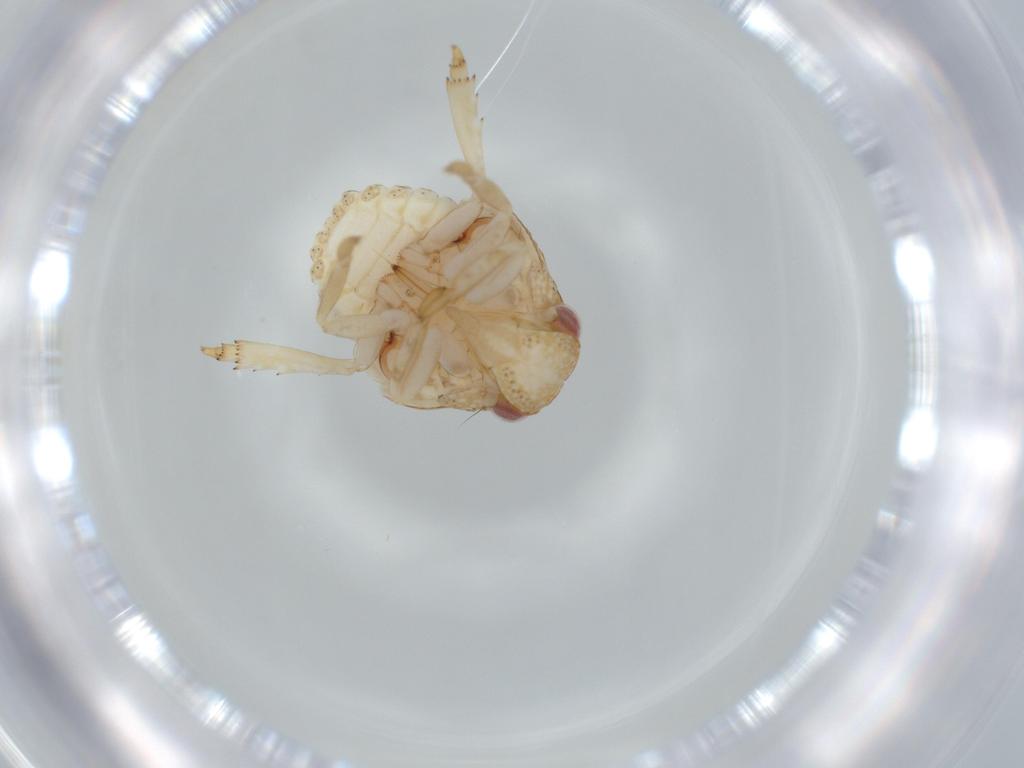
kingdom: Animalia
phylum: Arthropoda
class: Insecta
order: Hemiptera
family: Acanaloniidae
